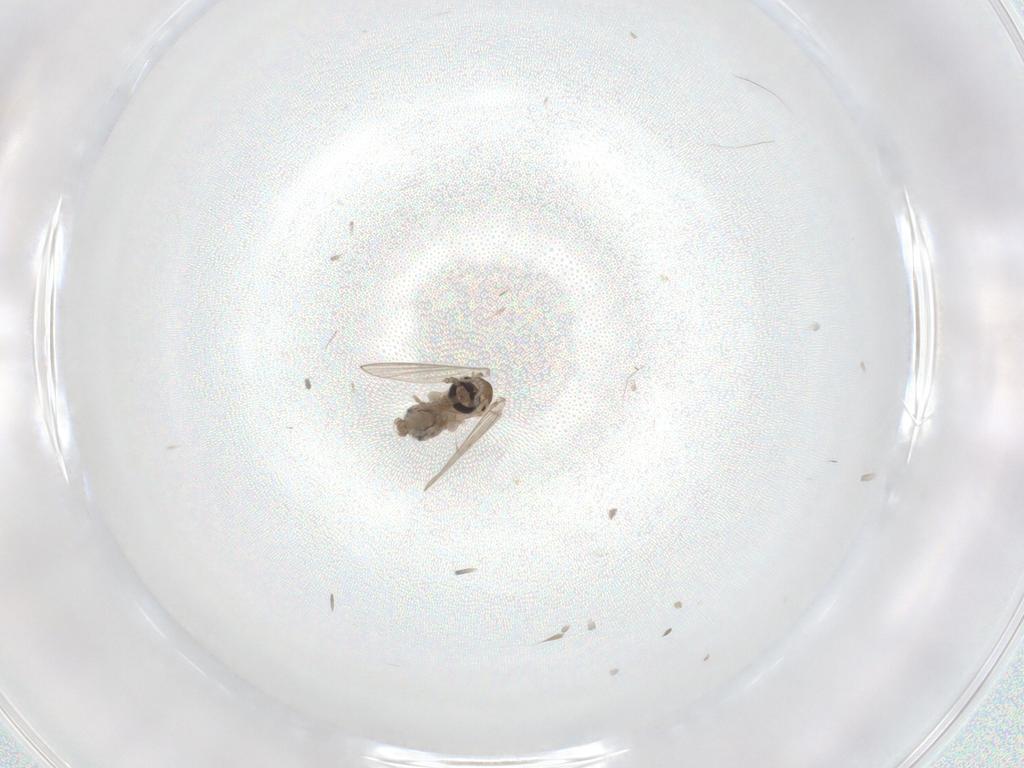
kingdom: Animalia
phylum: Arthropoda
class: Insecta
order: Diptera
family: Psychodidae
